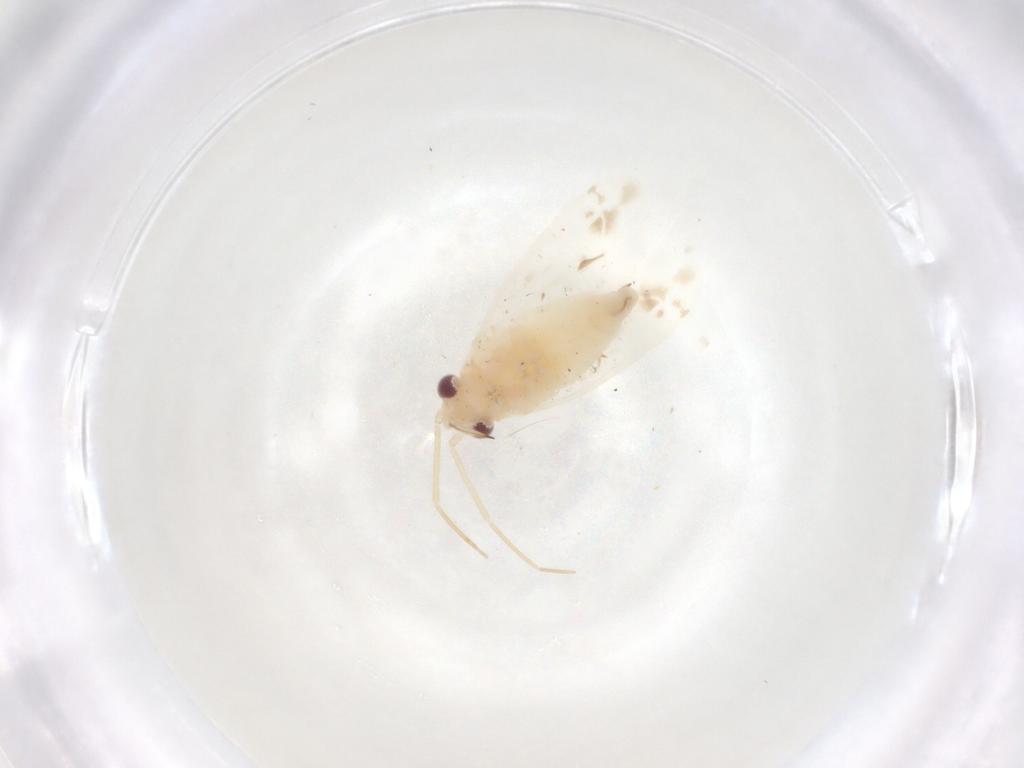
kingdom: Animalia
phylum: Arthropoda
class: Insecta
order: Hemiptera
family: Miridae
